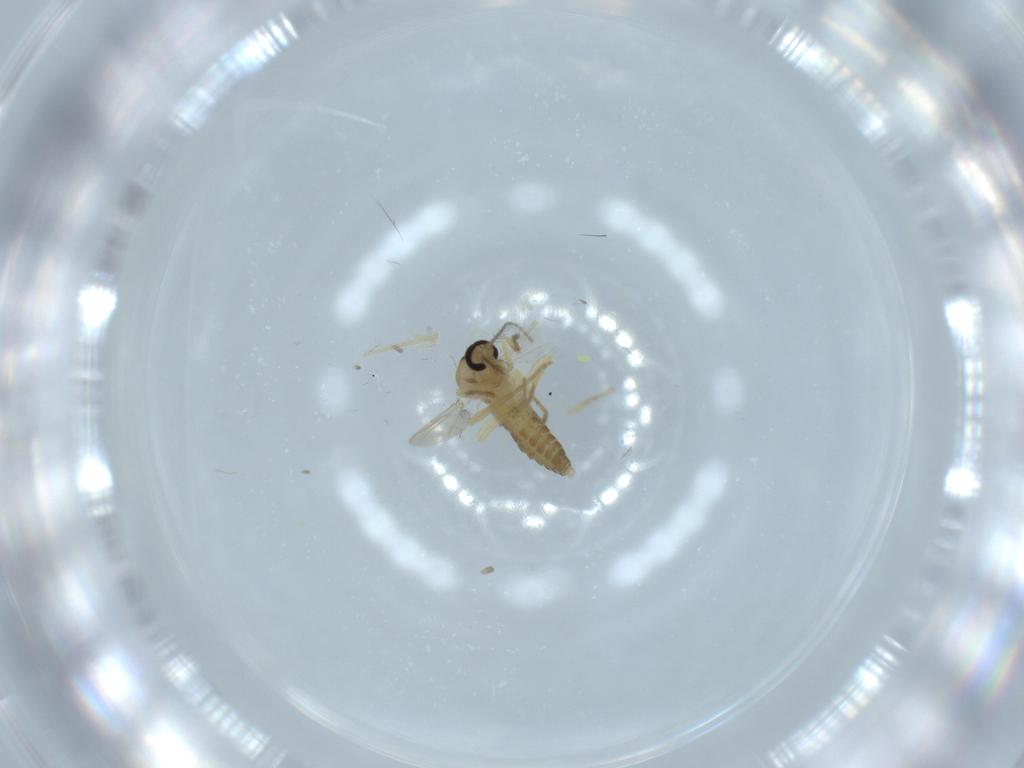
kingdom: Animalia
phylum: Arthropoda
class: Insecta
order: Diptera
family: Ceratopogonidae
